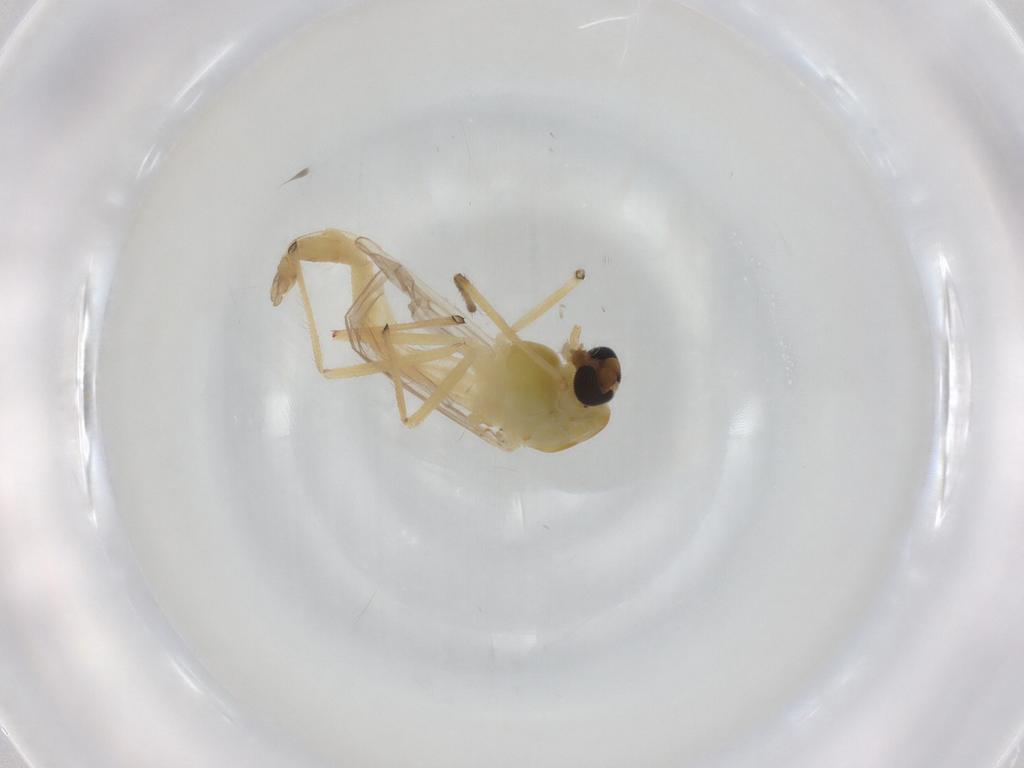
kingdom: Animalia
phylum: Arthropoda
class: Insecta
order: Diptera
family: Chironomidae
